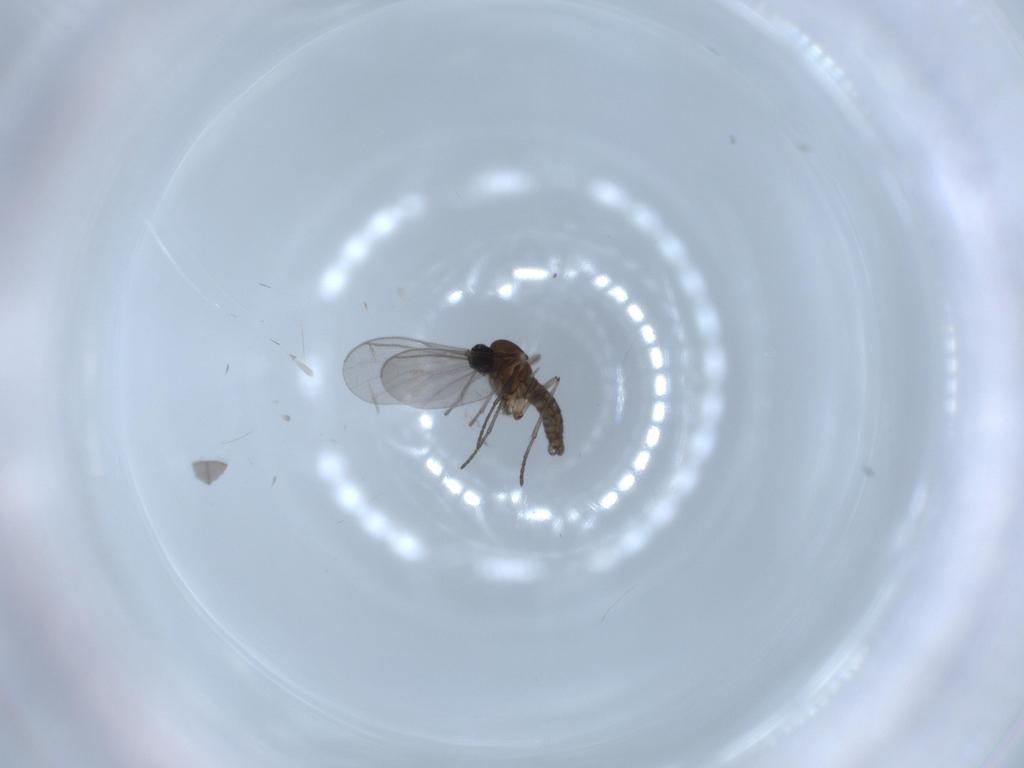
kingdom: Animalia
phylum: Arthropoda
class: Insecta
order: Diptera
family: Sciaridae
